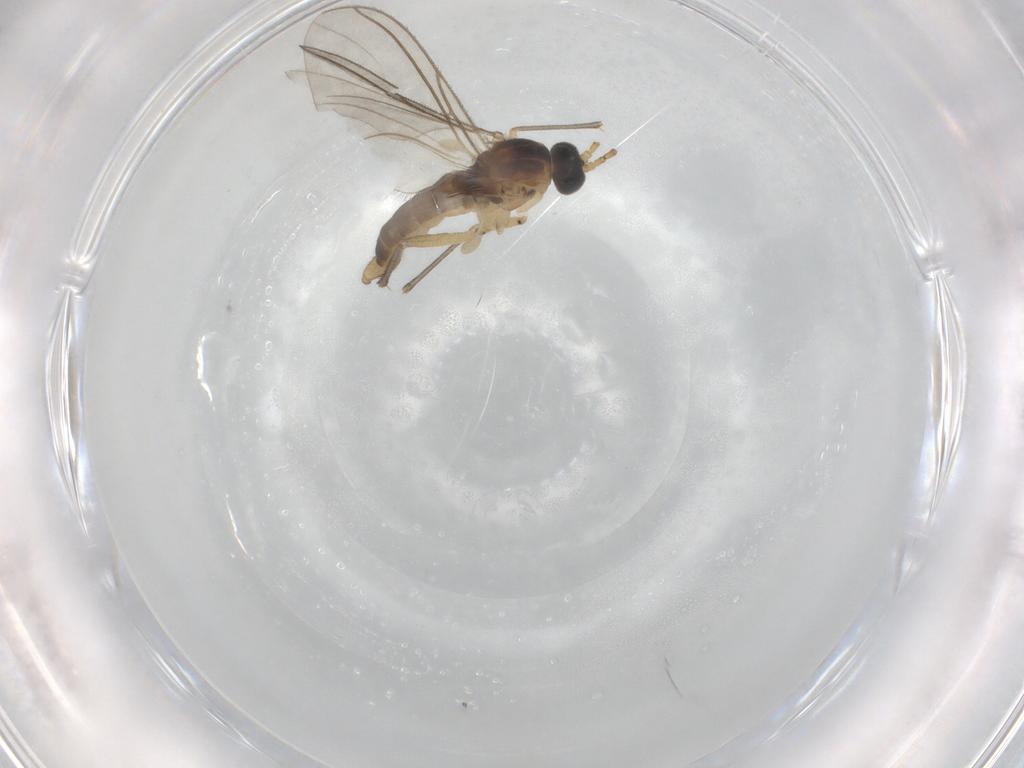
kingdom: Animalia
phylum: Arthropoda
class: Insecta
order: Diptera
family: Sciaridae
